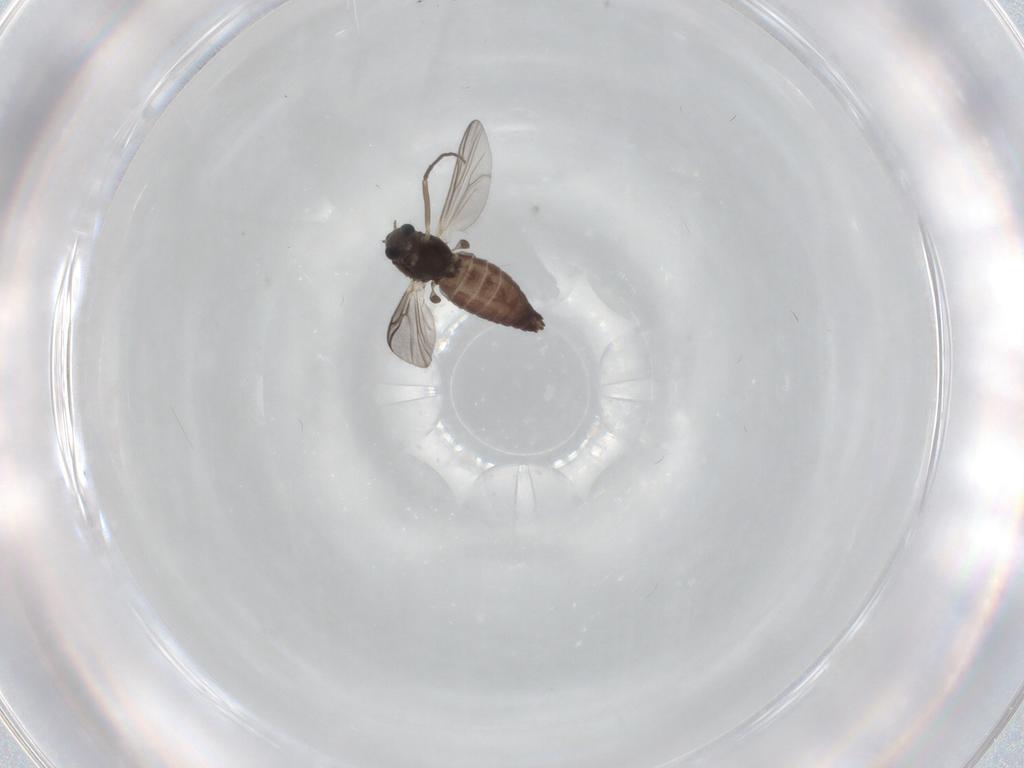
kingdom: Animalia
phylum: Arthropoda
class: Insecta
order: Diptera
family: Chironomidae
